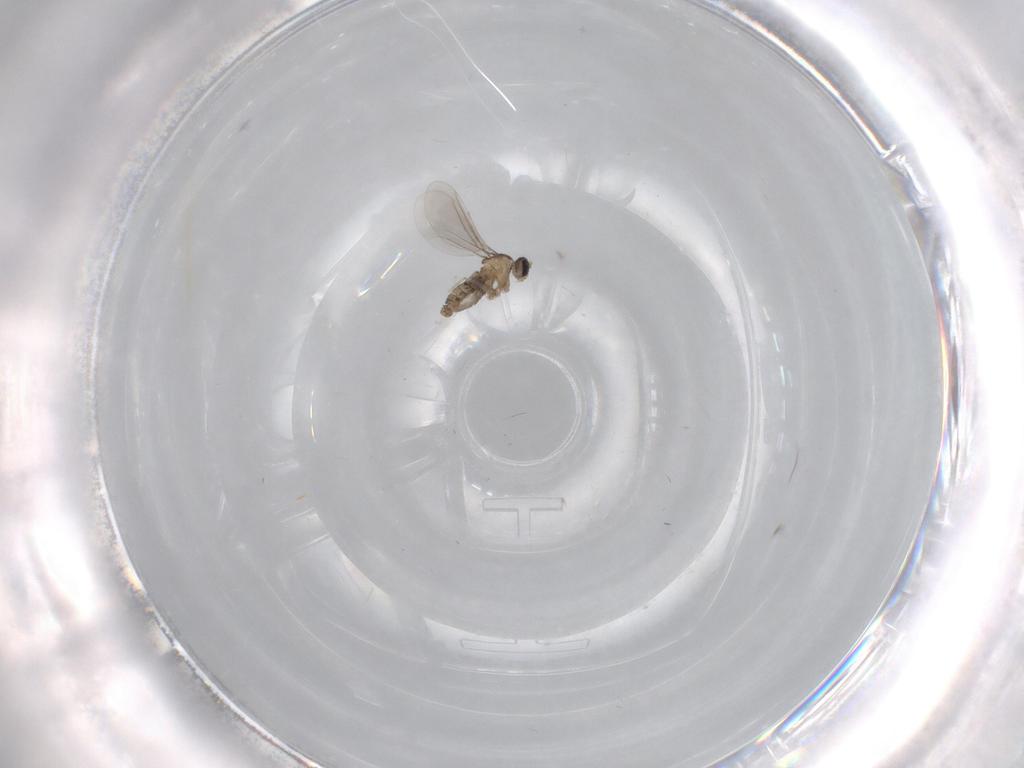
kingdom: Animalia
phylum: Arthropoda
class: Insecta
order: Diptera
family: Cecidomyiidae
